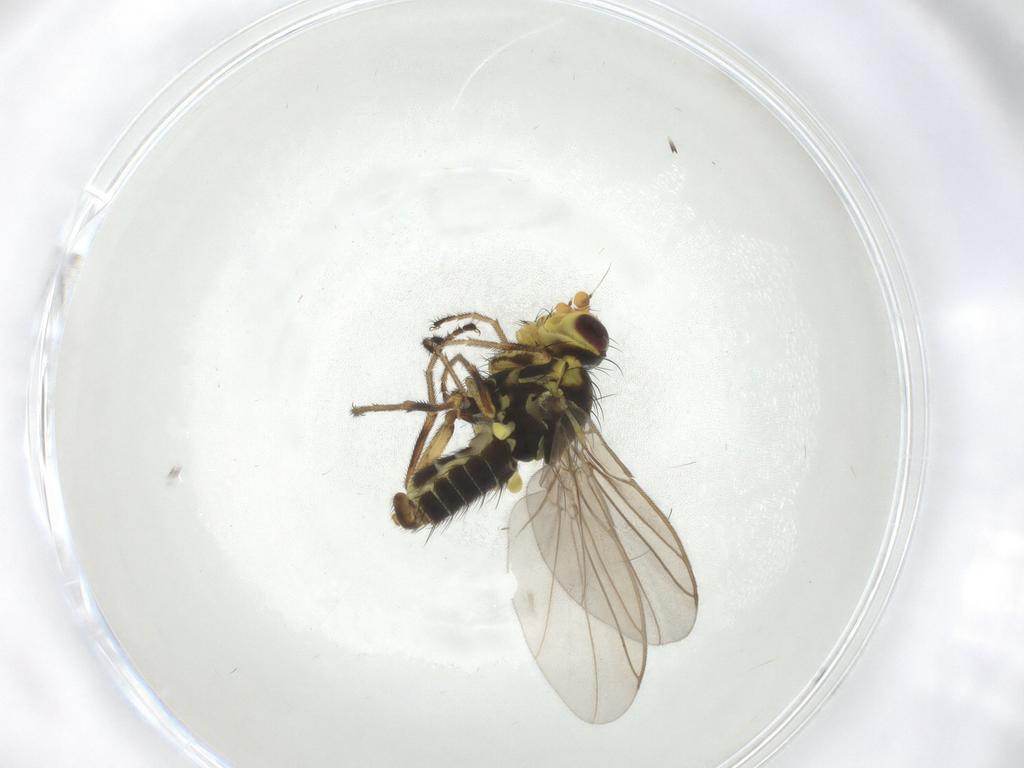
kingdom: Animalia
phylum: Arthropoda
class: Insecta
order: Diptera
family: Agromyzidae
